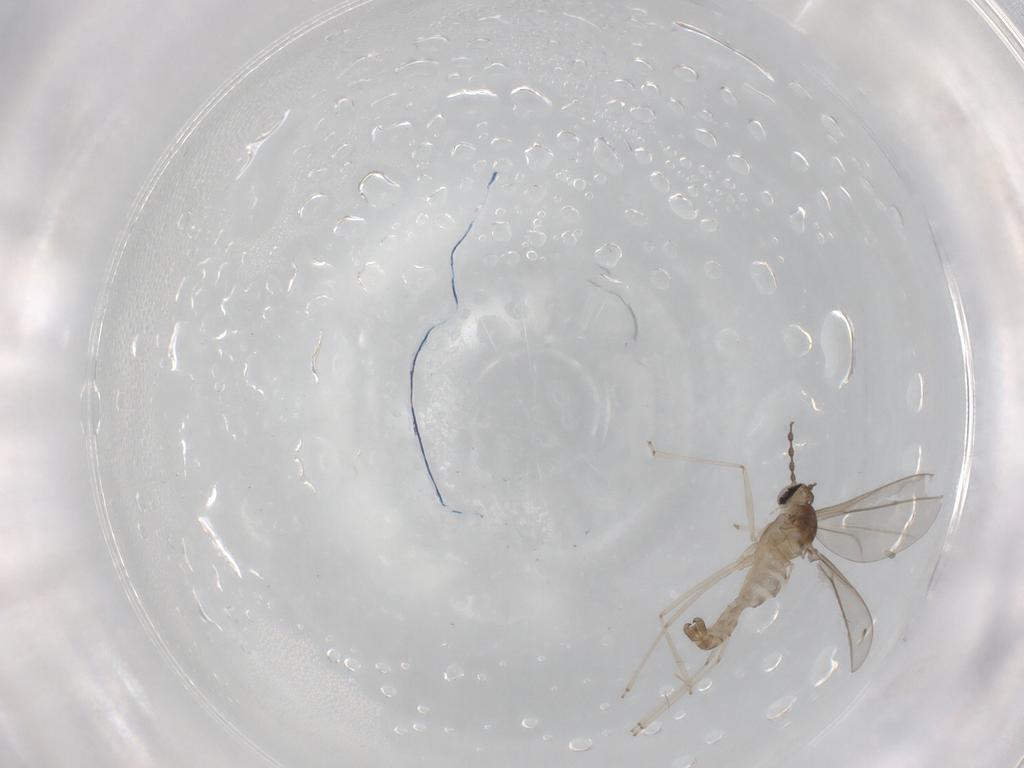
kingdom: Animalia
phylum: Arthropoda
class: Insecta
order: Diptera
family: Cecidomyiidae
